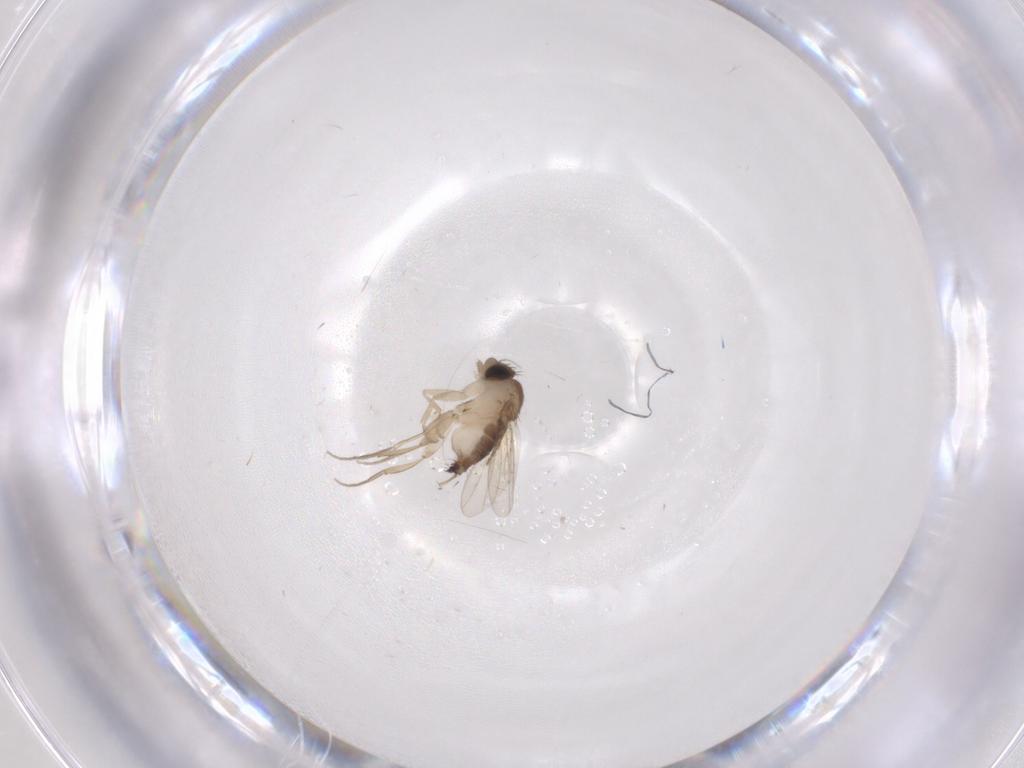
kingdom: Animalia
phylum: Arthropoda
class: Insecta
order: Diptera
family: Phoridae
